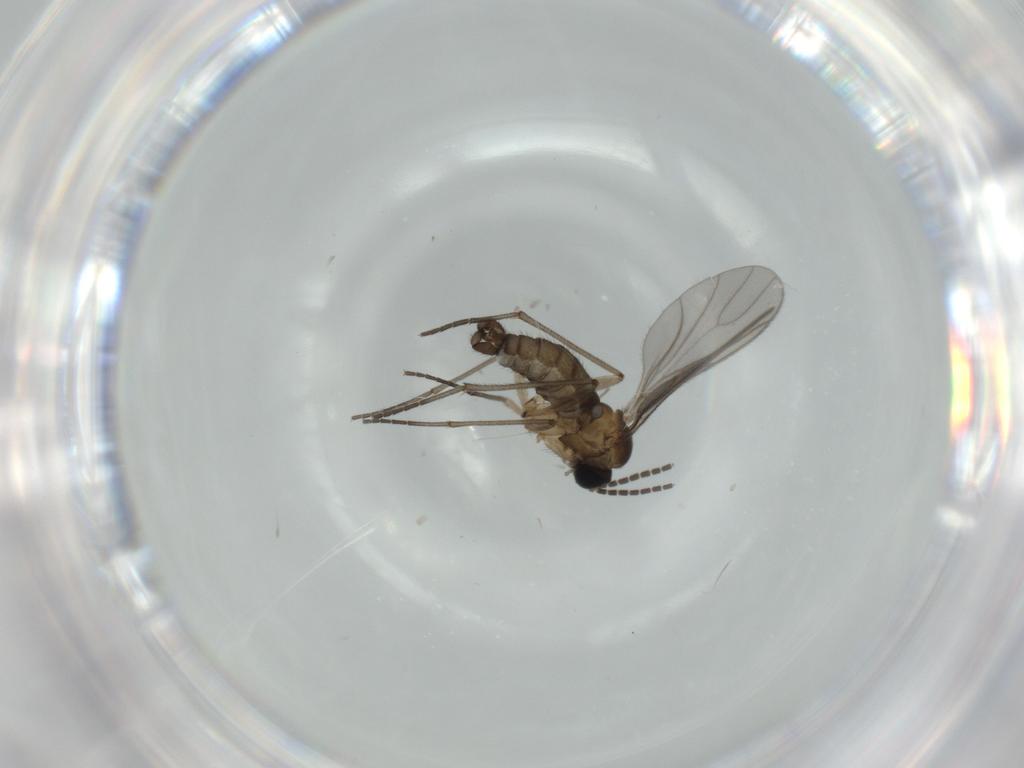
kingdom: Animalia
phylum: Arthropoda
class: Insecta
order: Diptera
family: Sciaridae
